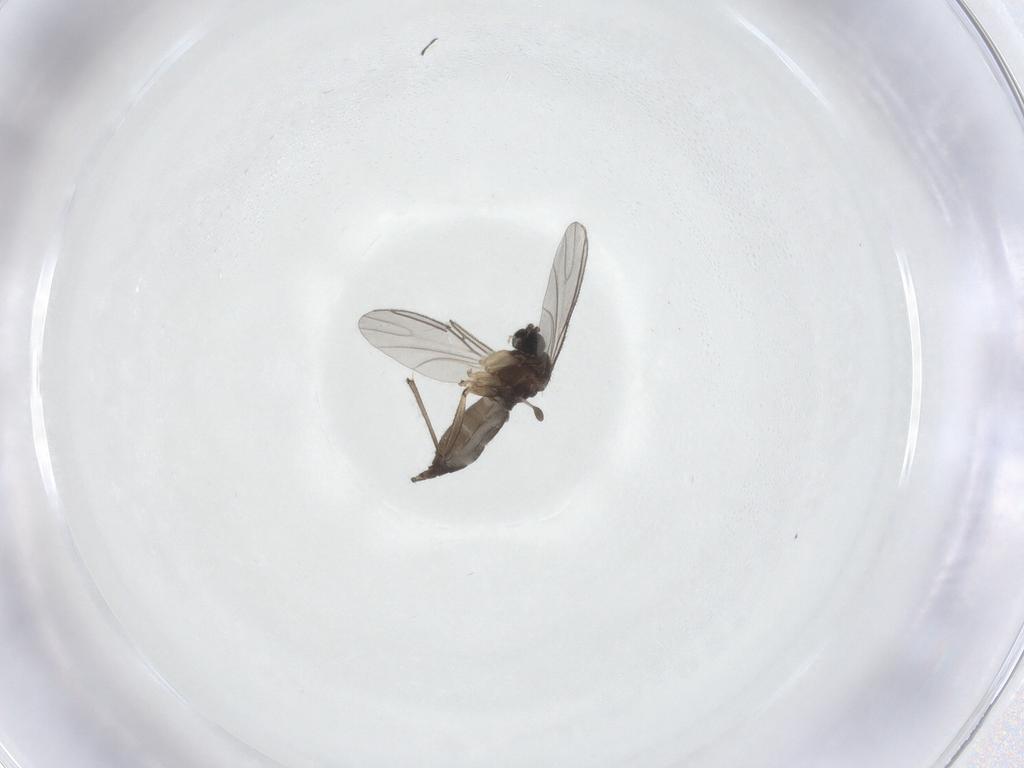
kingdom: Animalia
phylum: Arthropoda
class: Insecta
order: Diptera
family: Sciaridae
